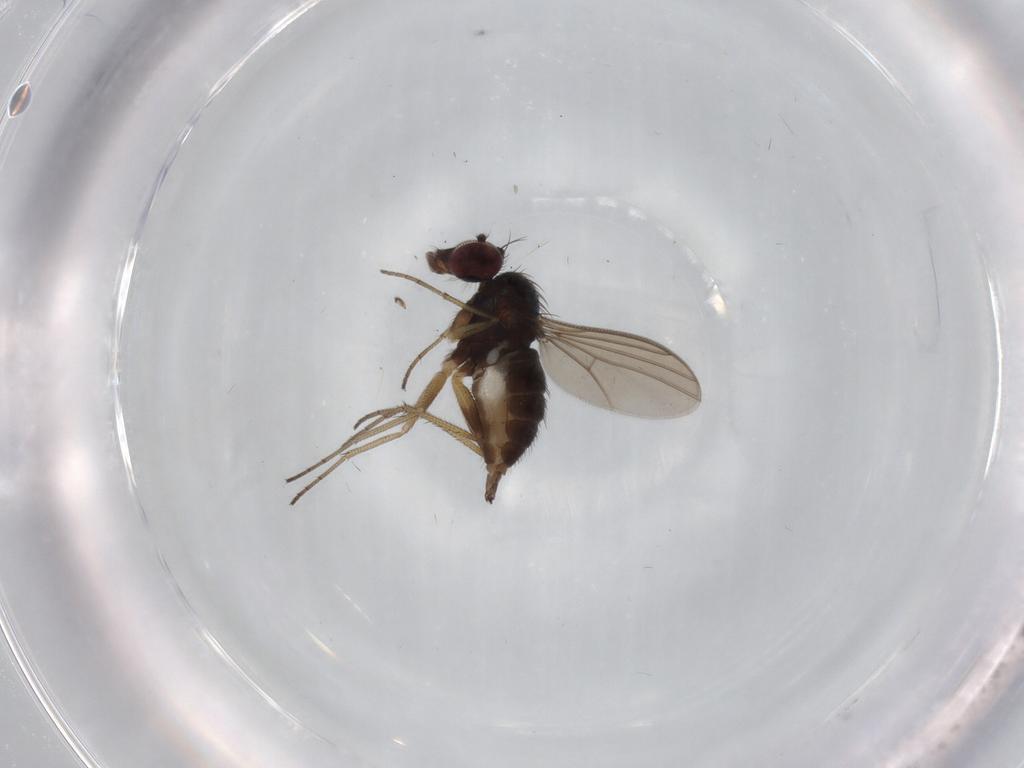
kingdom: Animalia
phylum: Arthropoda
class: Insecta
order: Diptera
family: Dolichopodidae
